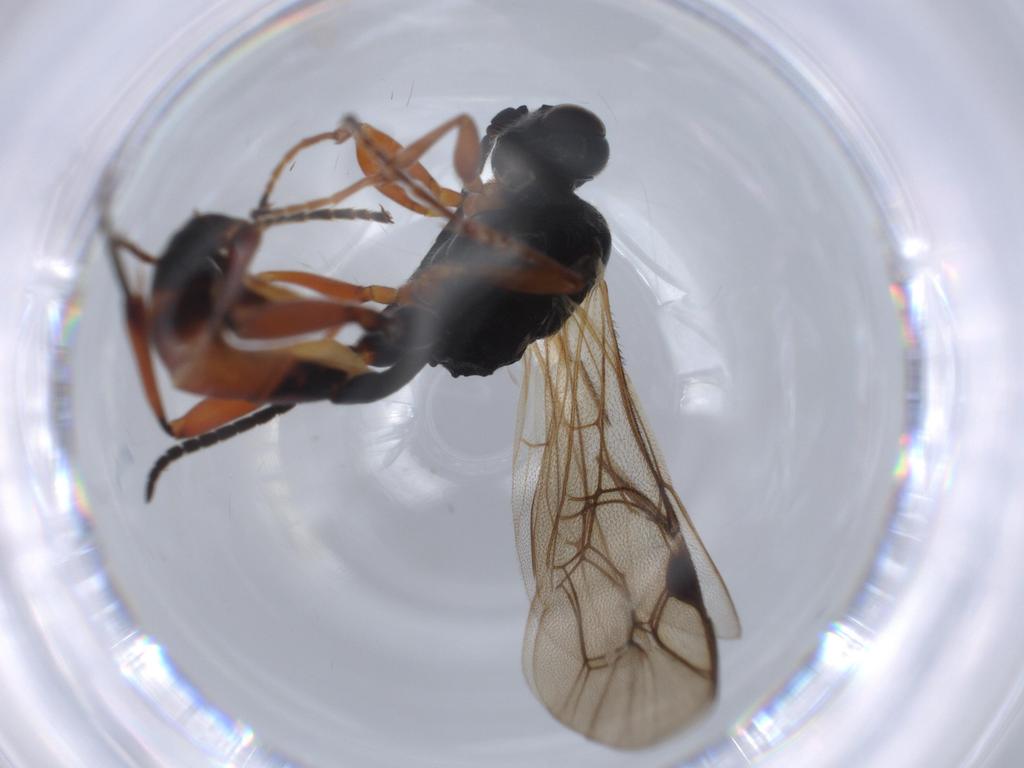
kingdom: Animalia
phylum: Arthropoda
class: Insecta
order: Hymenoptera
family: Ichneumonidae
